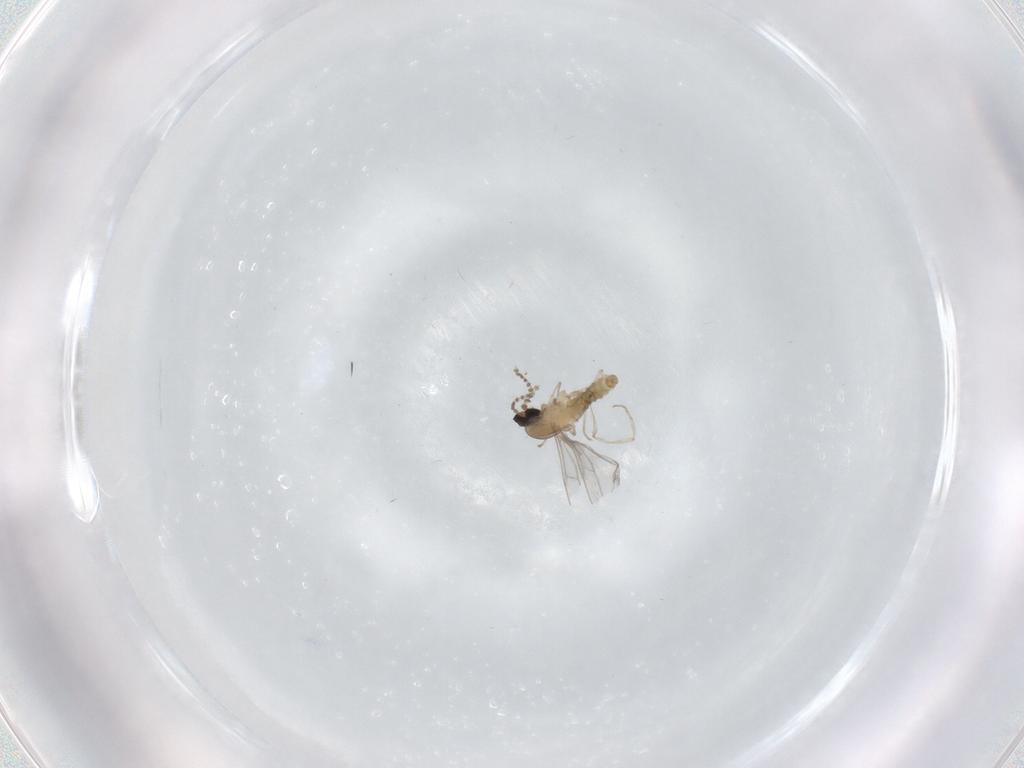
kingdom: Animalia
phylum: Arthropoda
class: Insecta
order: Diptera
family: Cecidomyiidae
